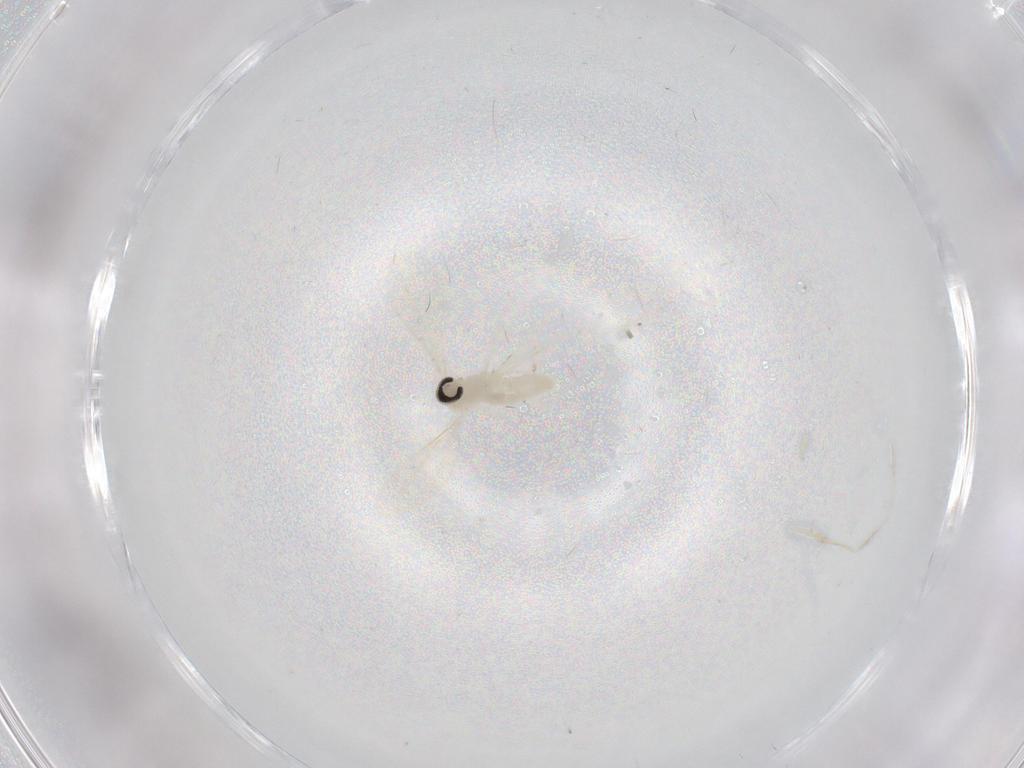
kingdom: Animalia
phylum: Arthropoda
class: Insecta
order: Diptera
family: Cecidomyiidae
